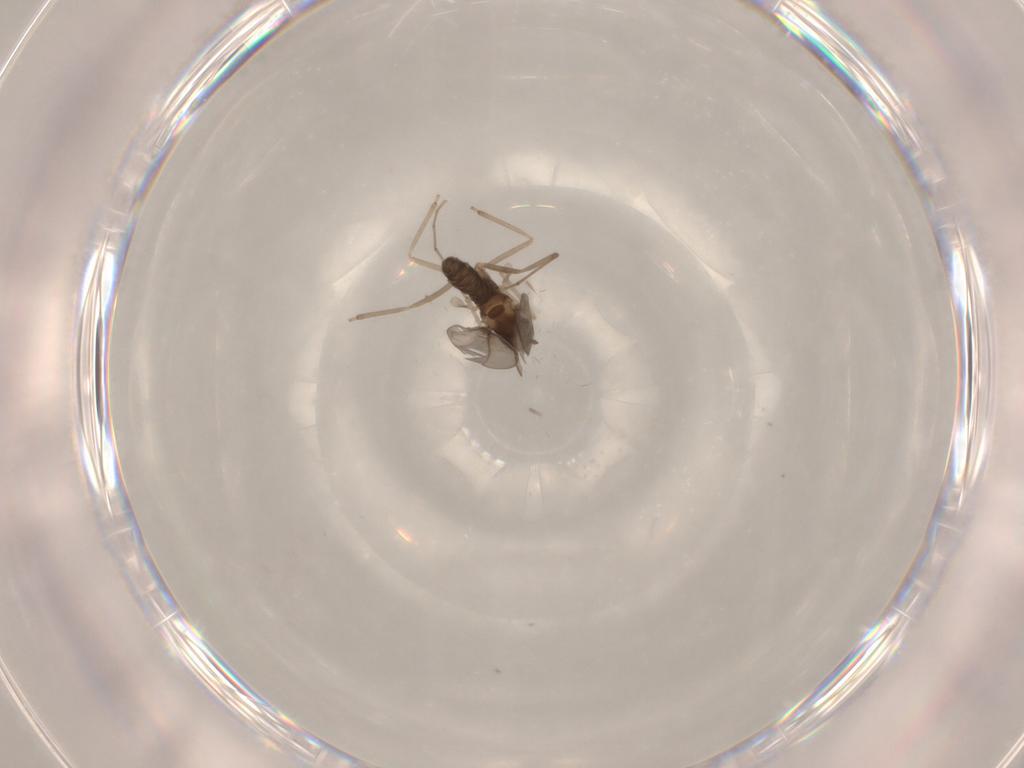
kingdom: Animalia
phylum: Arthropoda
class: Insecta
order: Diptera
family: Cecidomyiidae
